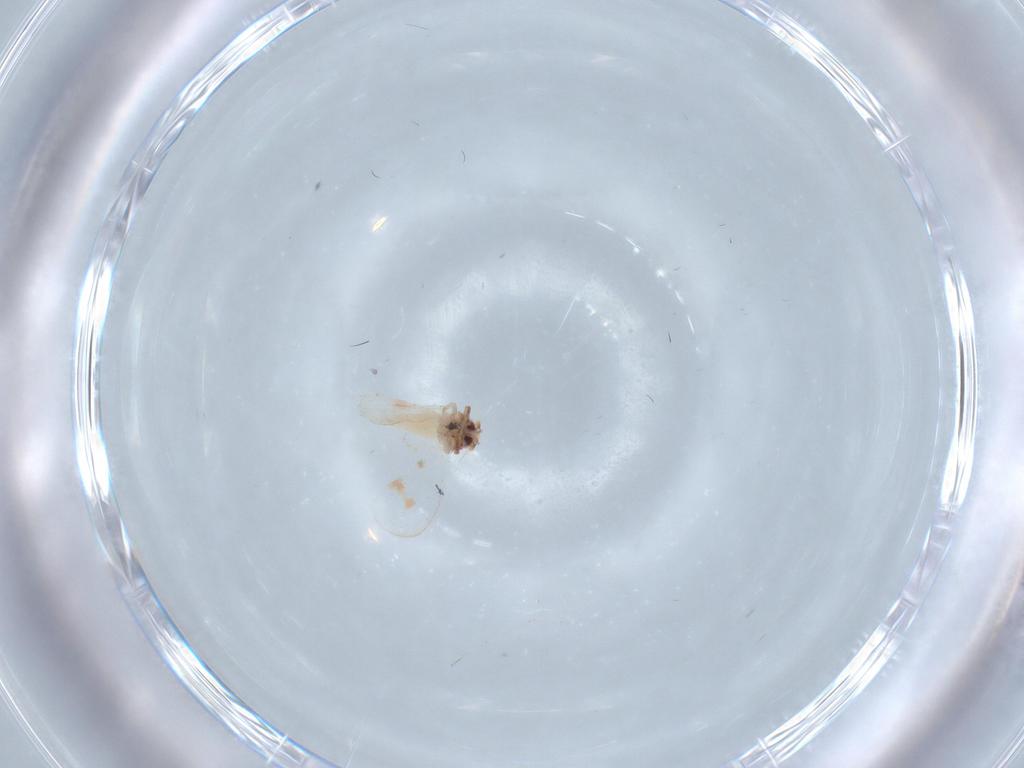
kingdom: Animalia
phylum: Arthropoda
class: Insecta
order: Hemiptera
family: Aleyrodidae
